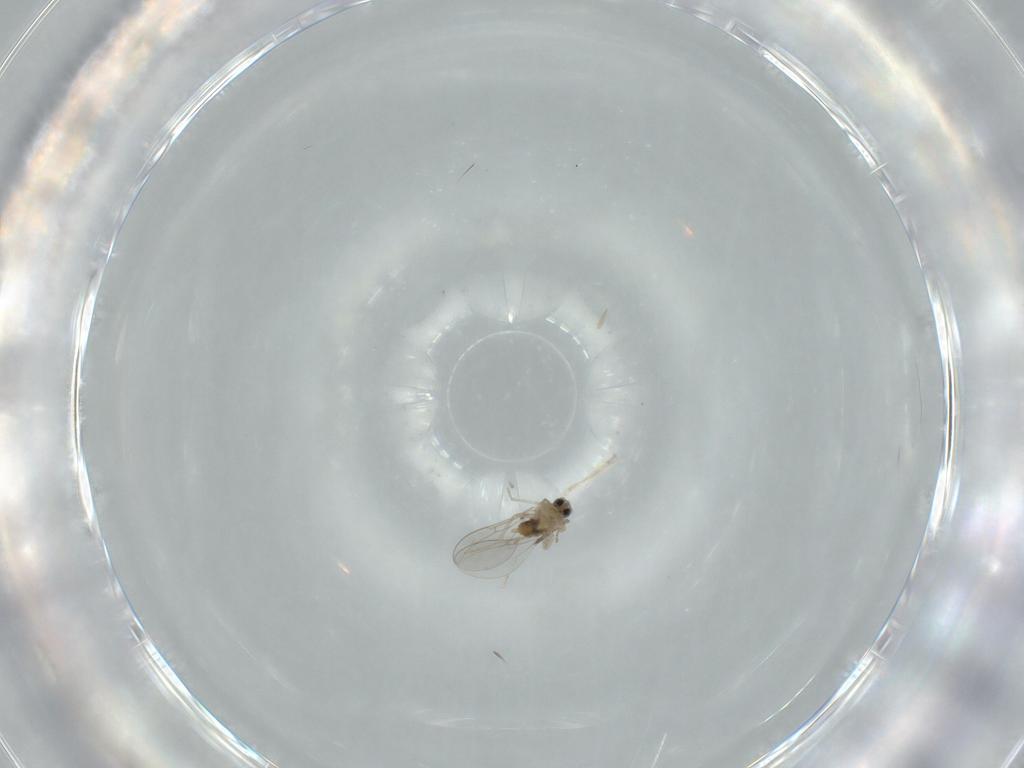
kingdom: Animalia
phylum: Arthropoda
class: Insecta
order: Diptera
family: Cecidomyiidae
